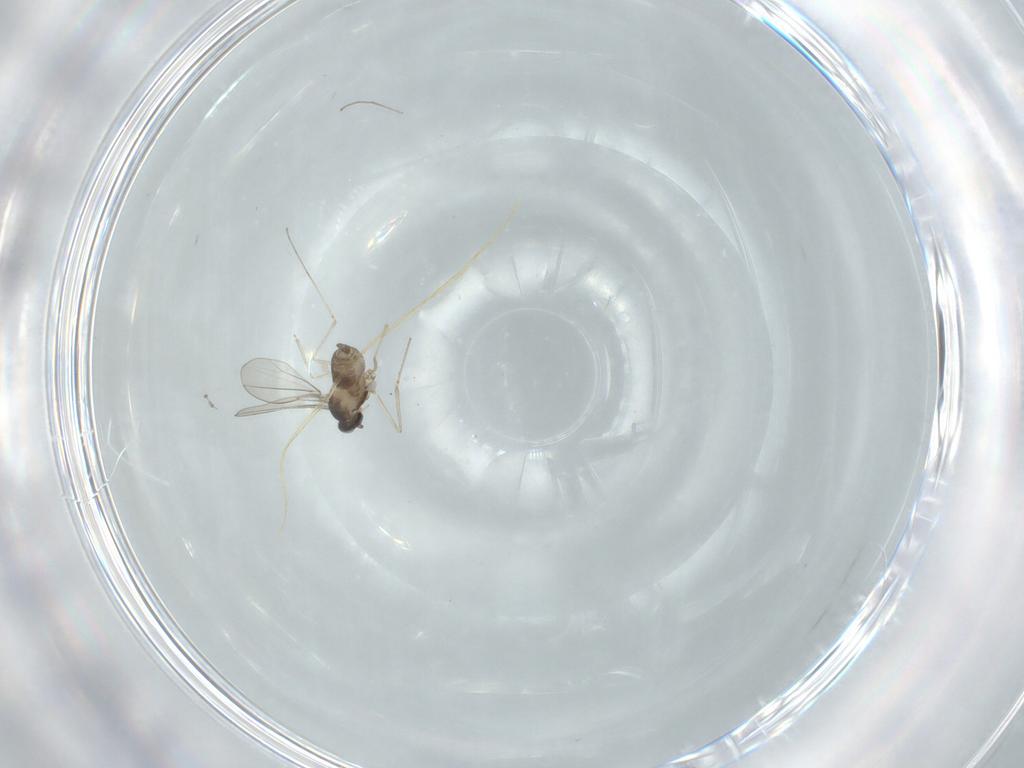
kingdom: Animalia
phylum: Arthropoda
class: Insecta
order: Diptera
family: Cecidomyiidae
